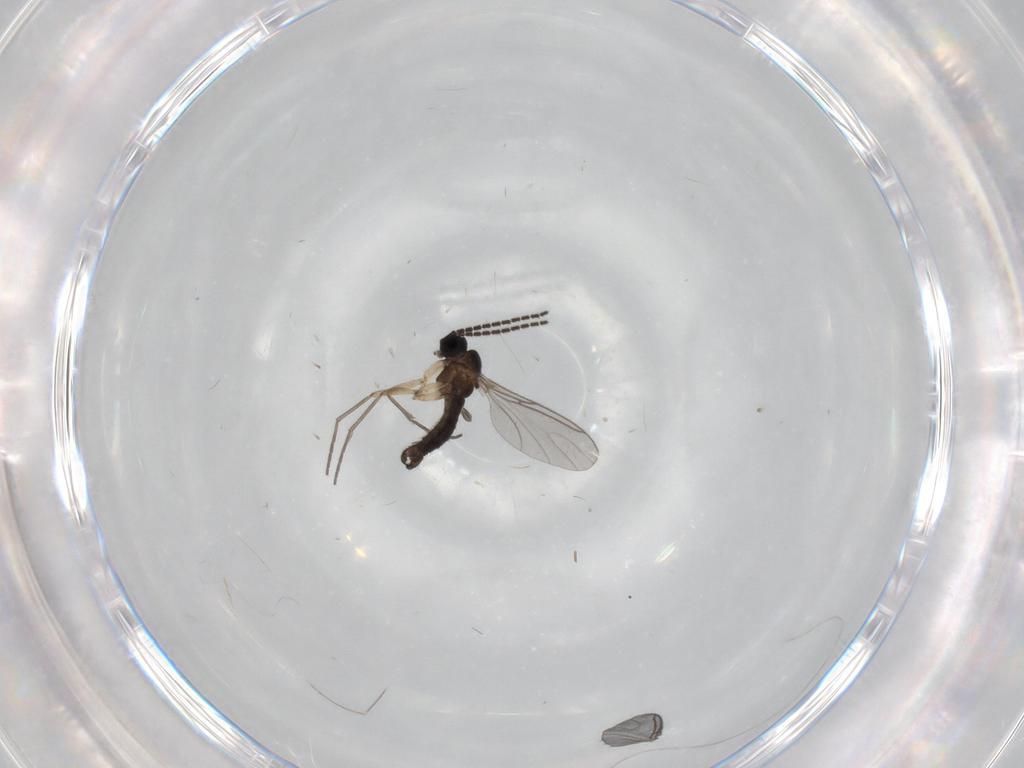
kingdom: Animalia
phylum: Arthropoda
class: Insecta
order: Diptera
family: Sciaridae
